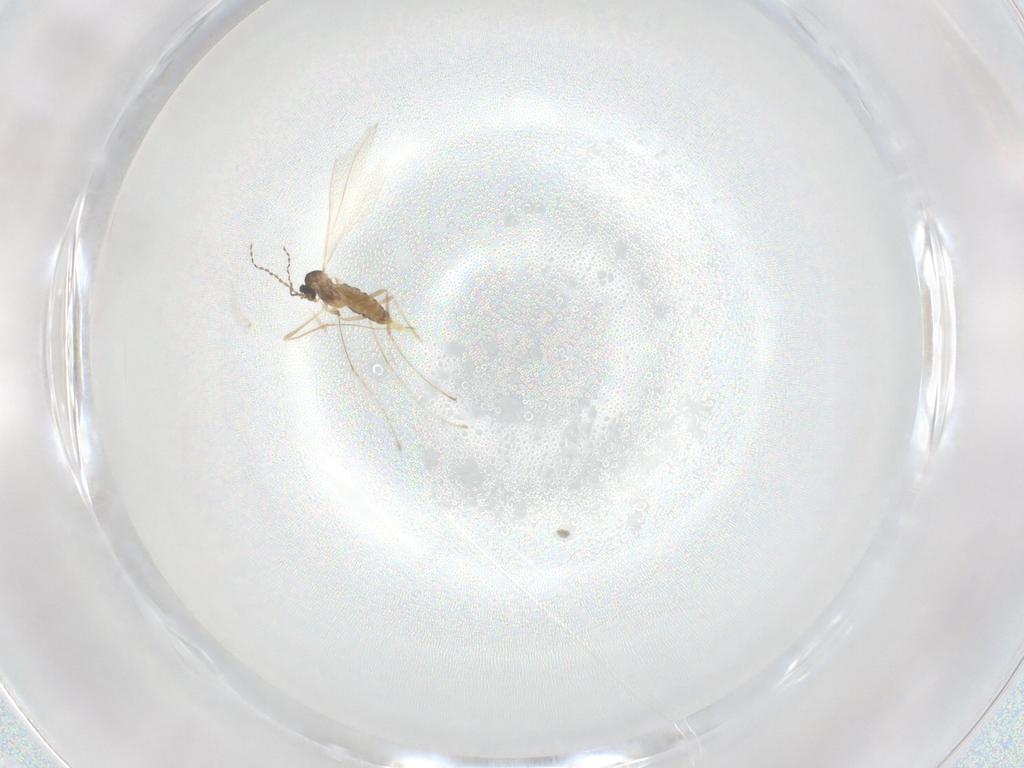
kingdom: Animalia
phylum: Arthropoda
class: Insecta
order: Diptera
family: Cecidomyiidae
